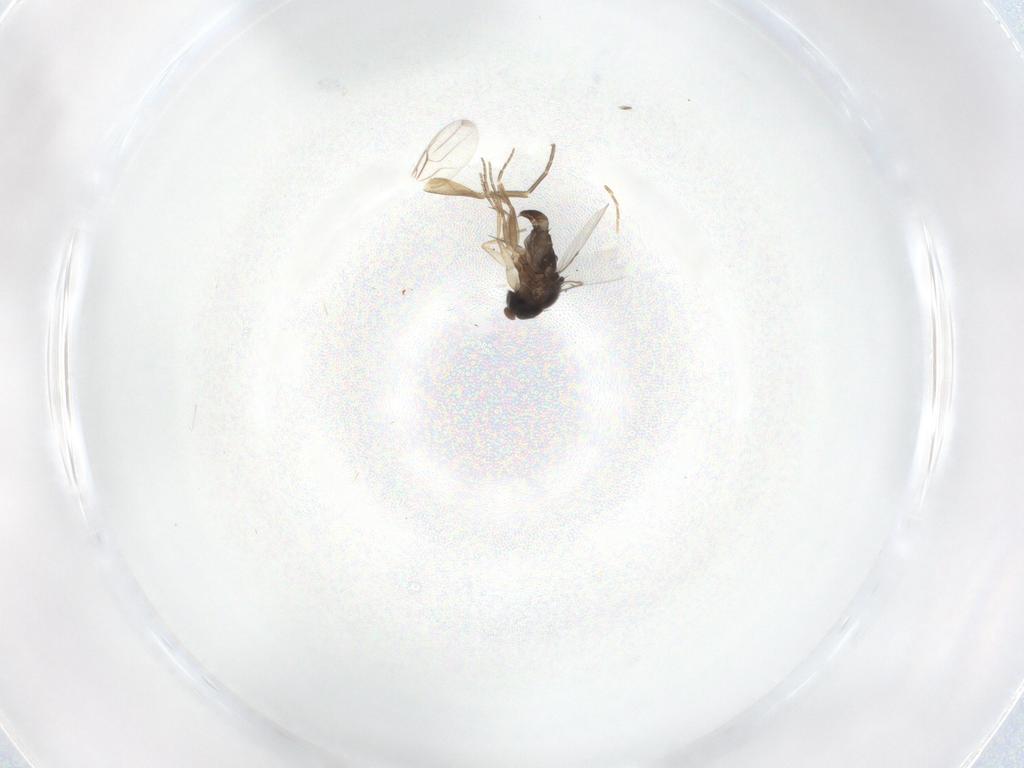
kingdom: Animalia
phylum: Arthropoda
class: Insecta
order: Diptera
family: Phoridae
